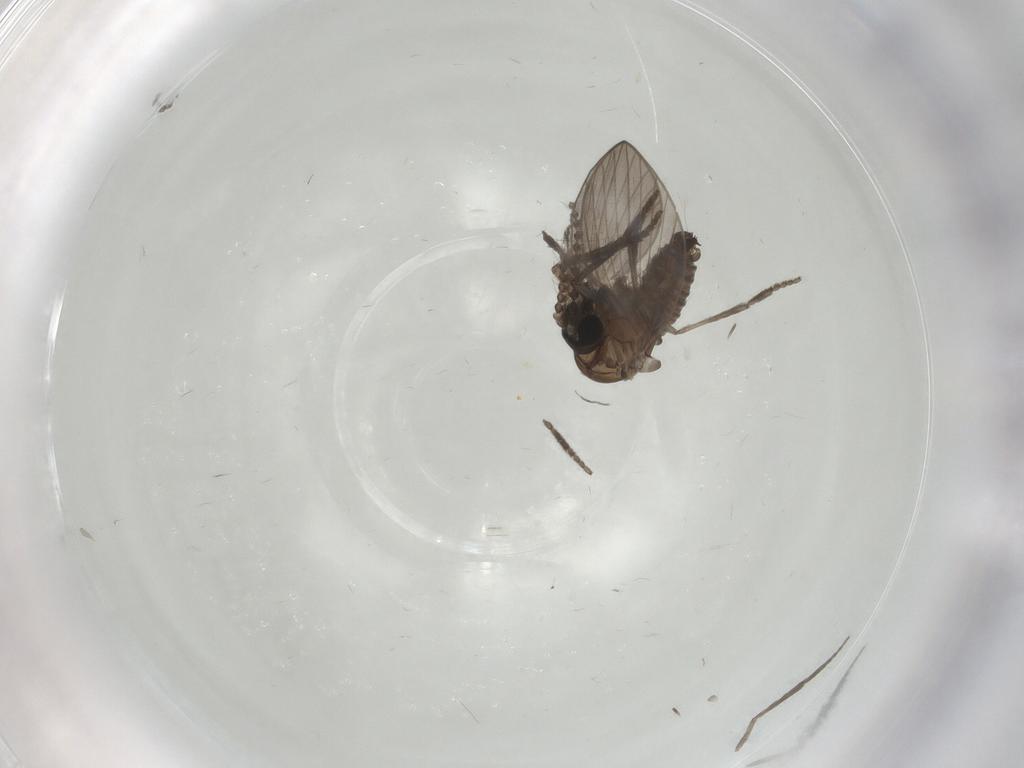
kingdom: Animalia
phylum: Arthropoda
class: Insecta
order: Diptera
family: Psychodidae
